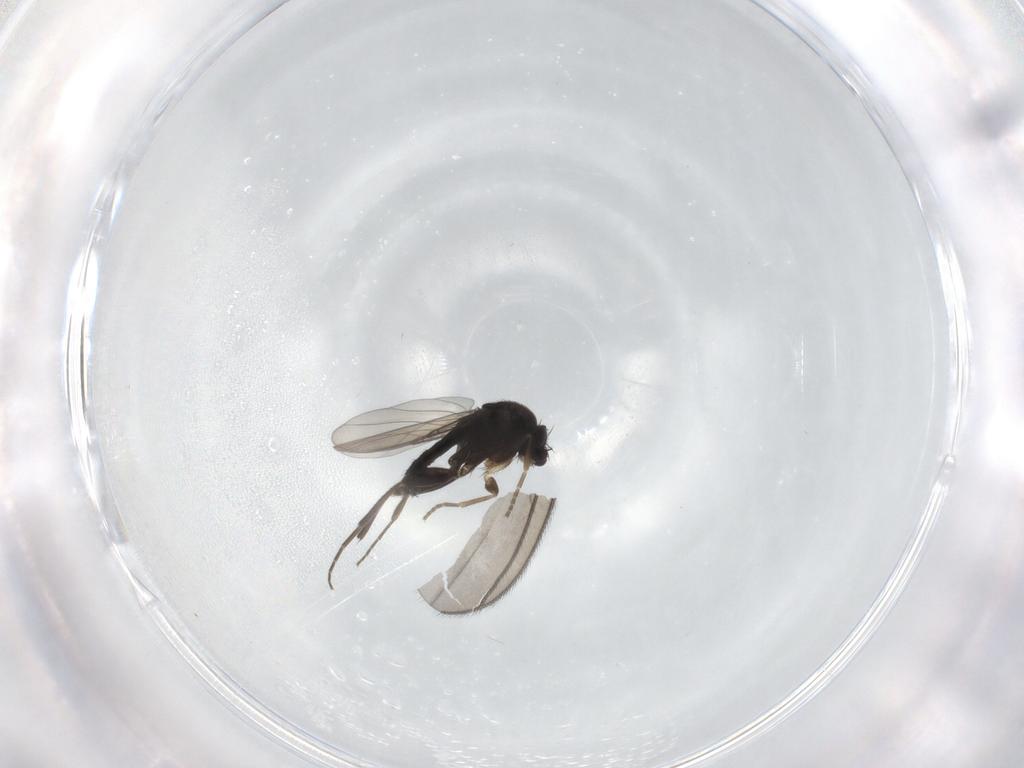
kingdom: Animalia
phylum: Arthropoda
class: Insecta
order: Diptera
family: Phoridae
